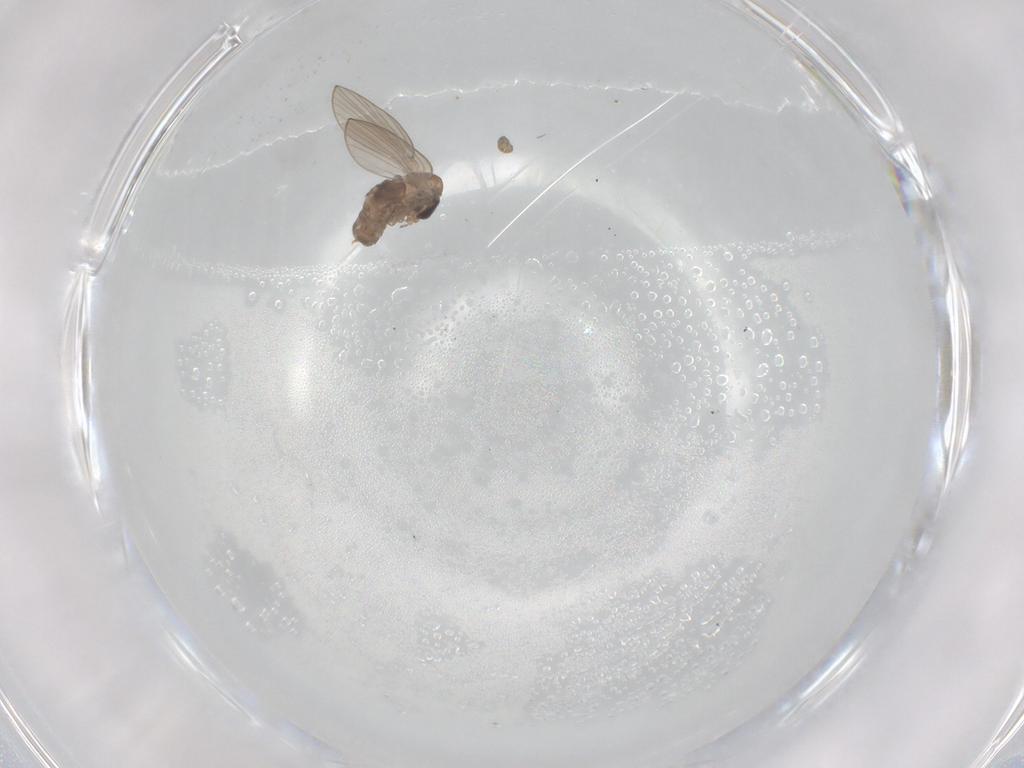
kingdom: Animalia
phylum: Arthropoda
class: Insecta
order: Diptera
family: Psychodidae
